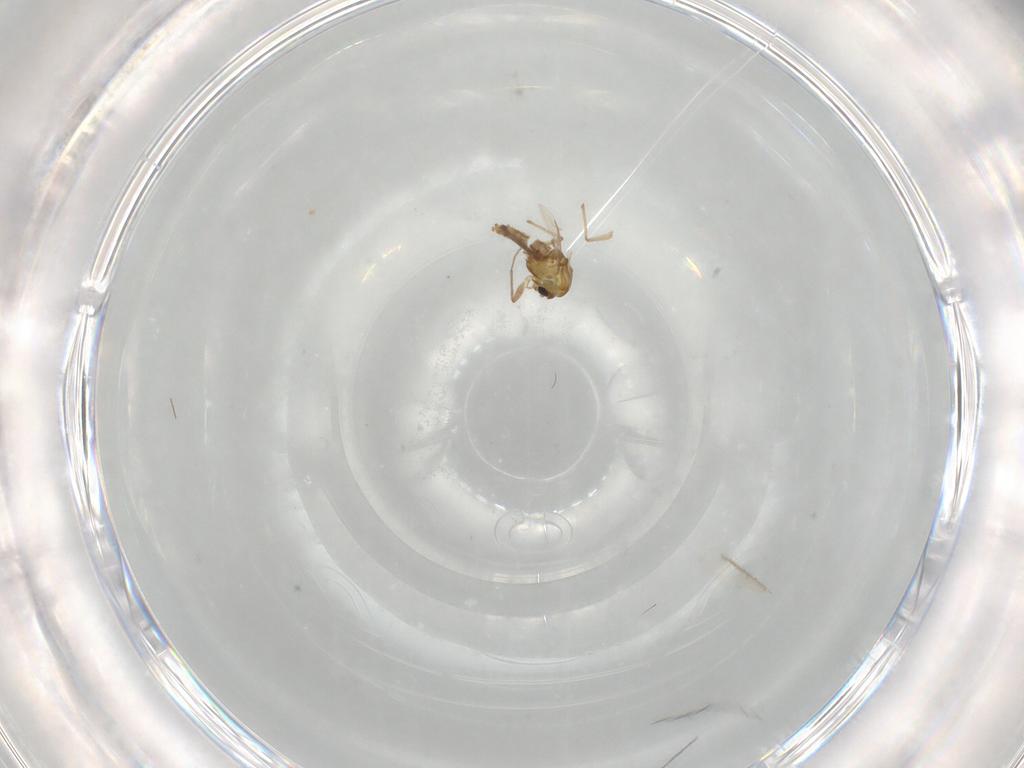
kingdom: Animalia
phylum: Arthropoda
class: Insecta
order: Diptera
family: Chironomidae
